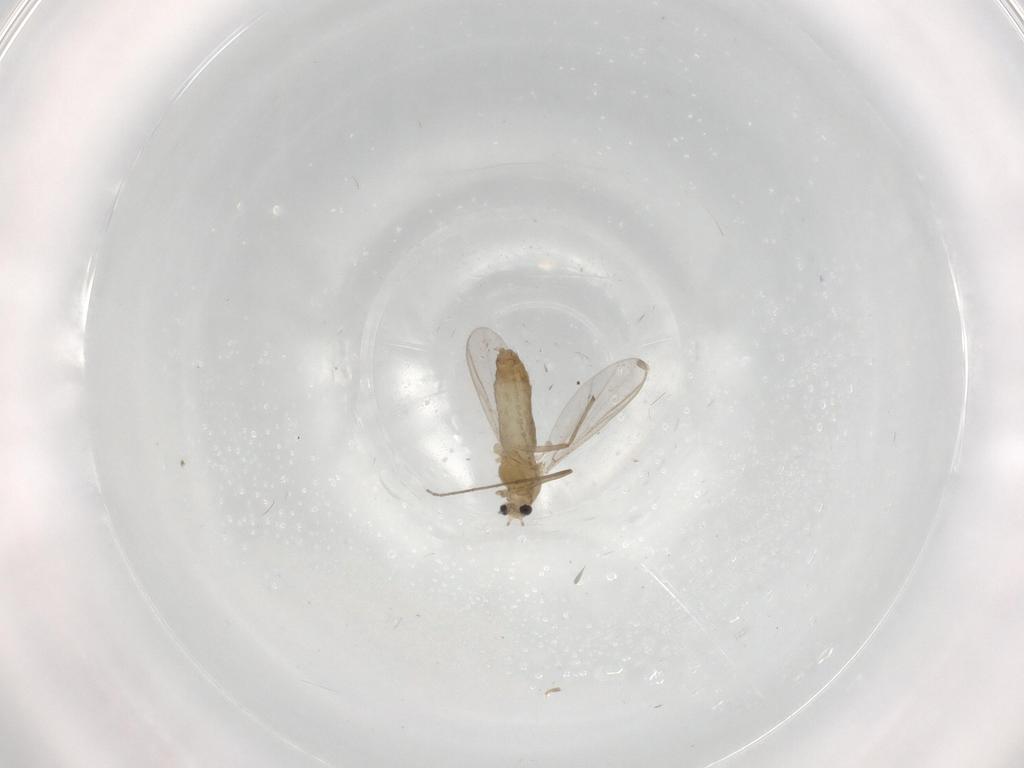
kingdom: Animalia
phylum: Arthropoda
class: Insecta
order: Diptera
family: Chironomidae
